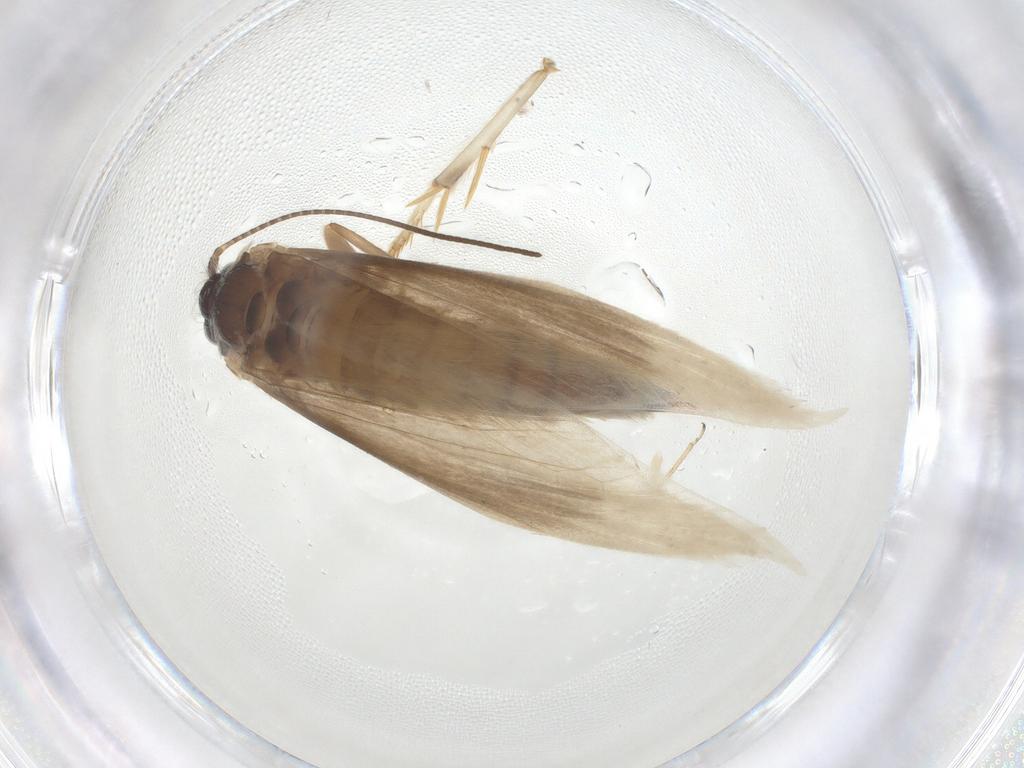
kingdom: Animalia
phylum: Arthropoda
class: Insecta
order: Lepidoptera
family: Tridentaformidae
